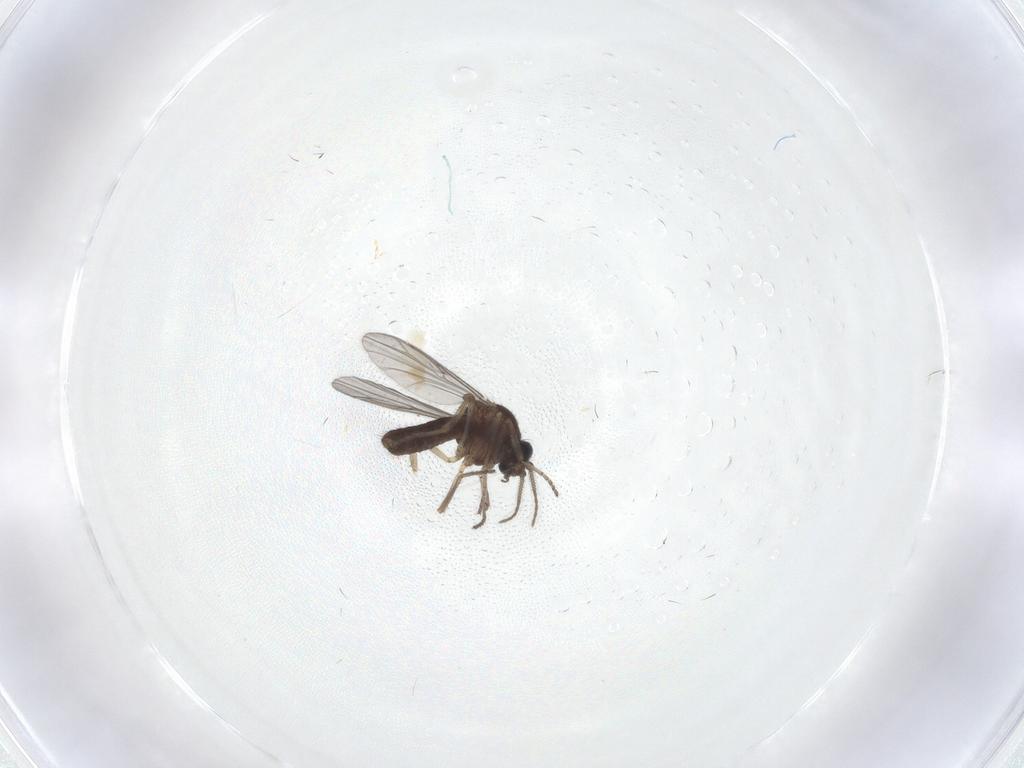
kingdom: Animalia
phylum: Arthropoda
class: Insecta
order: Diptera
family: Ceratopogonidae
